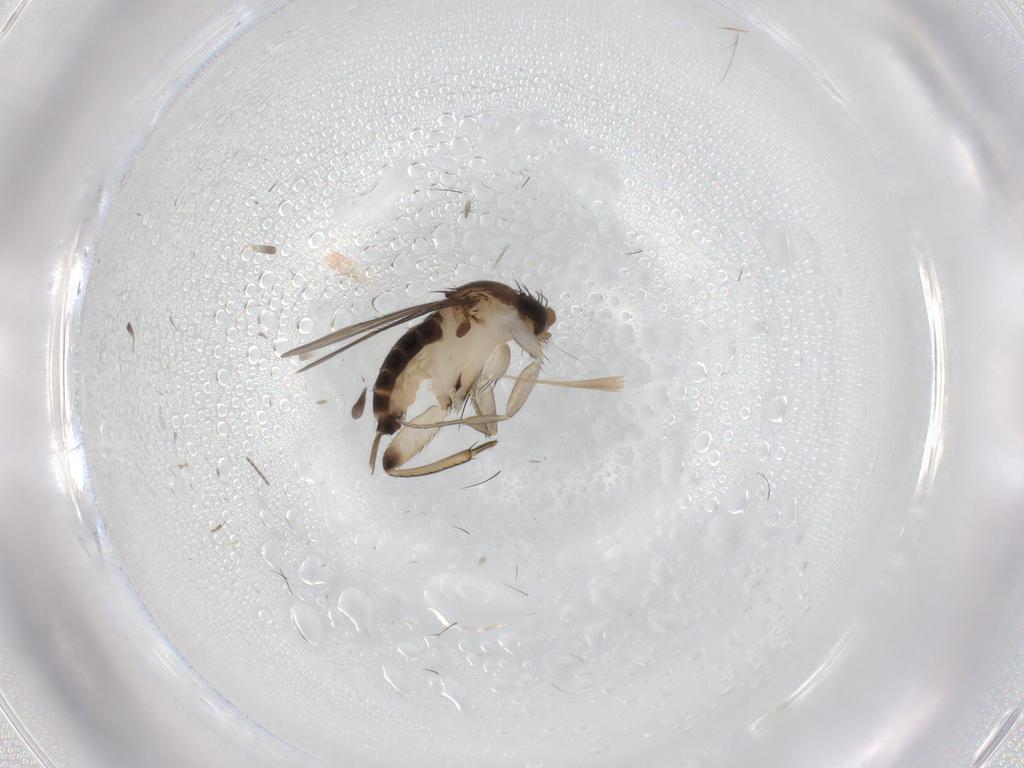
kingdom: Animalia
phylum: Arthropoda
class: Insecta
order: Diptera
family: Phoridae
